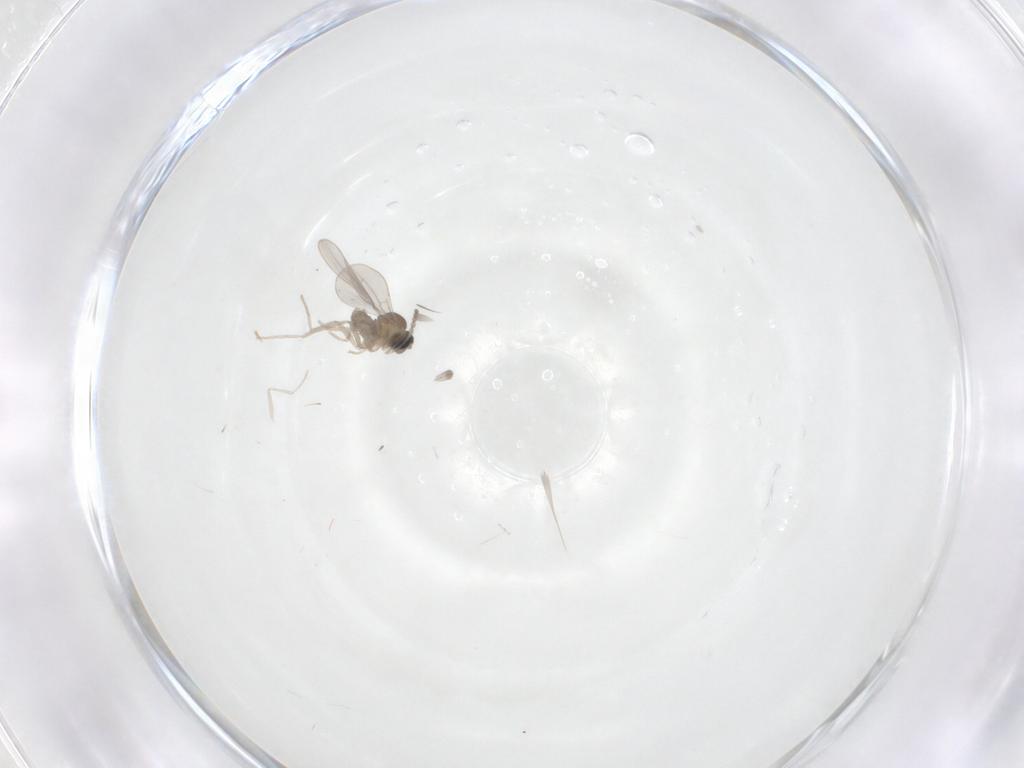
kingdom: Animalia
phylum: Arthropoda
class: Insecta
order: Diptera
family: Cecidomyiidae
